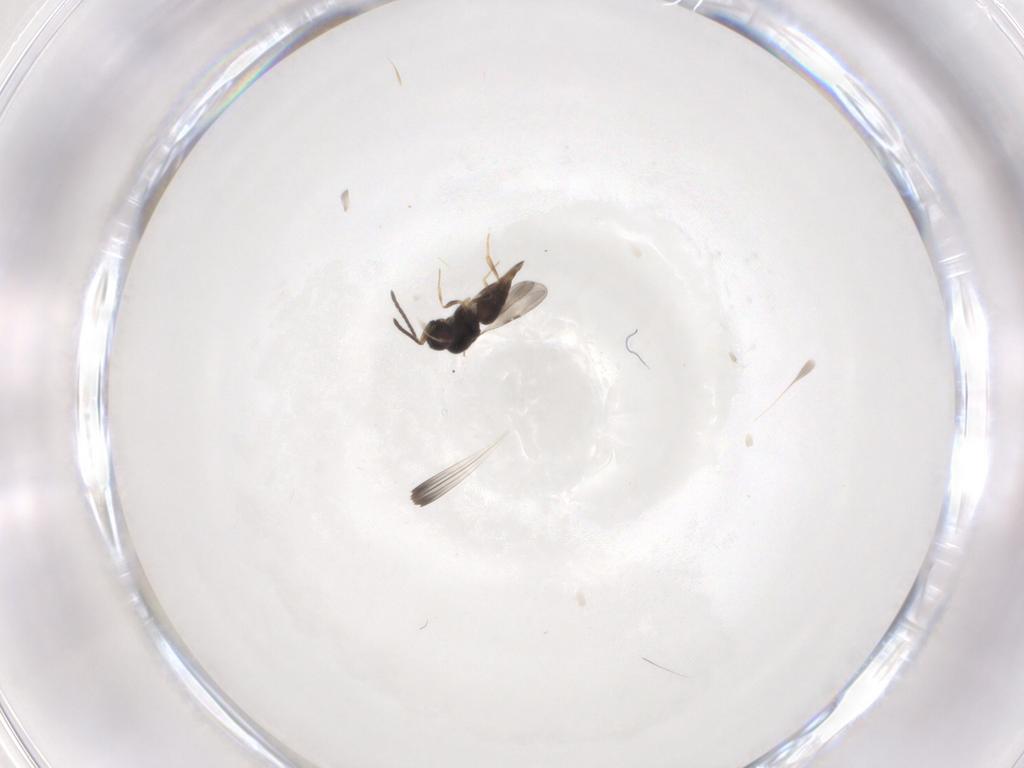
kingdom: Animalia
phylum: Arthropoda
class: Insecta
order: Hymenoptera
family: Ceraphronidae
